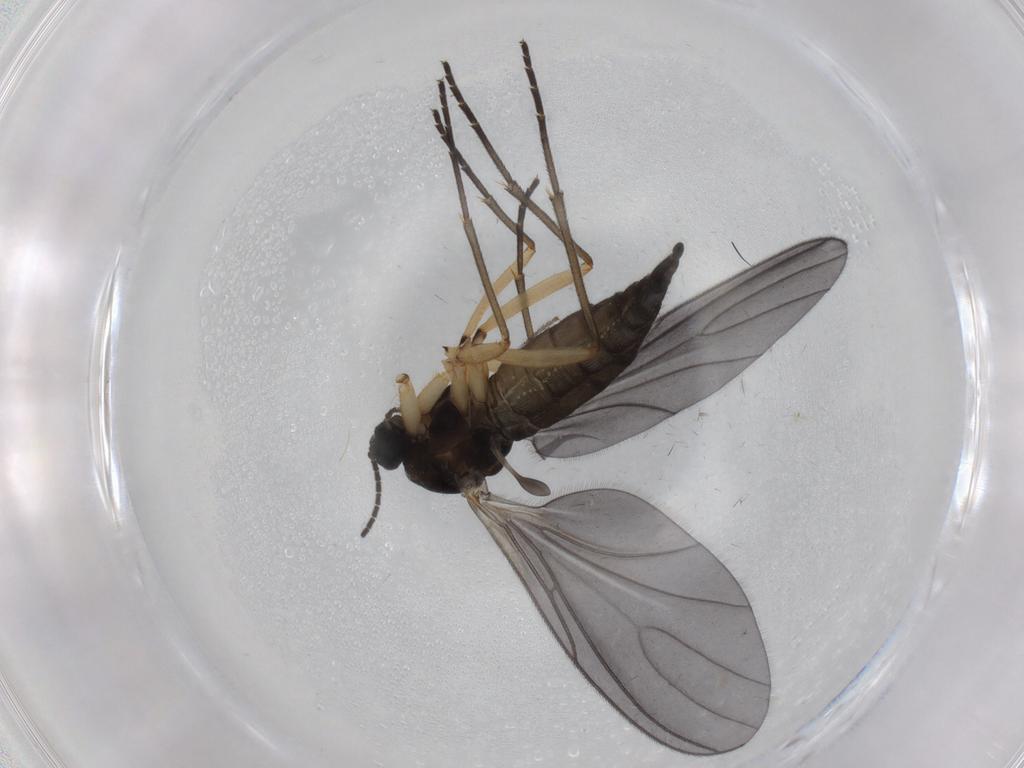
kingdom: Animalia
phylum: Arthropoda
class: Insecta
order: Diptera
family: Sciaridae
